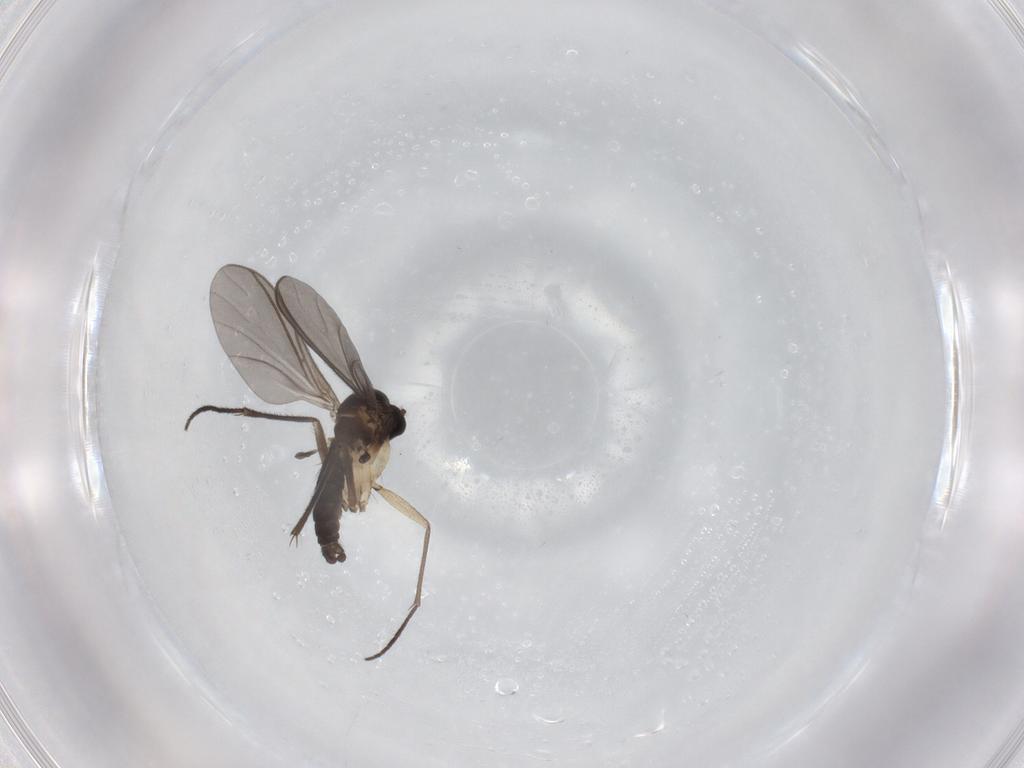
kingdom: Animalia
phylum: Arthropoda
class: Insecta
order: Diptera
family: Sciaridae
